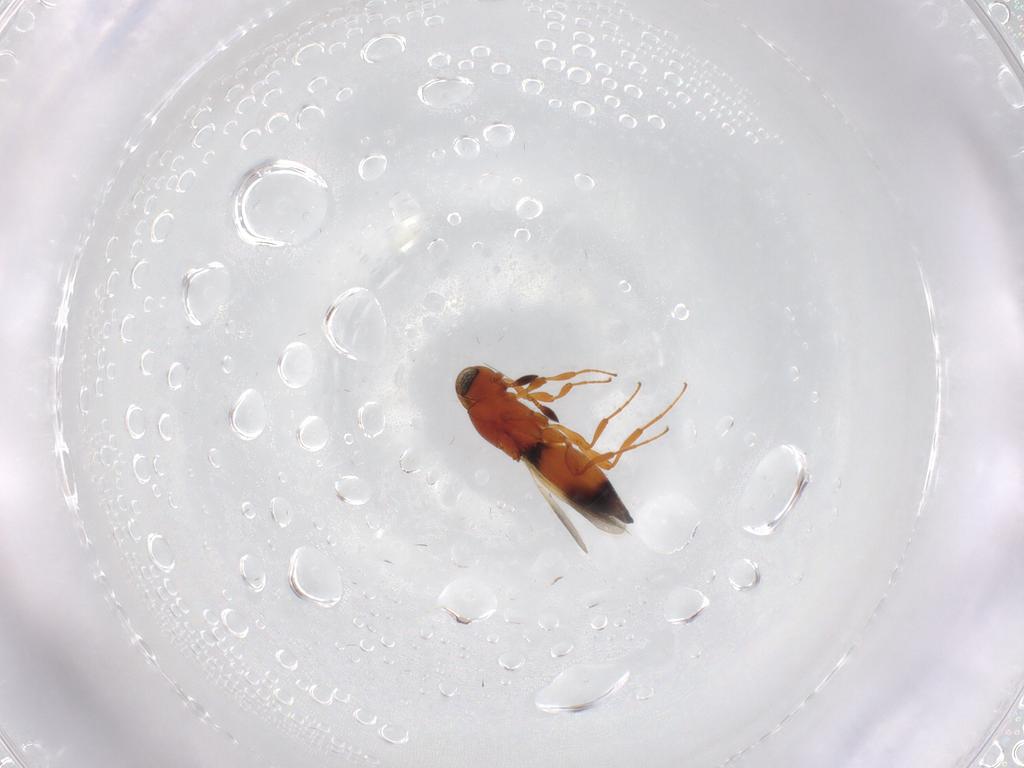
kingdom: Animalia
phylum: Arthropoda
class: Insecta
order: Hymenoptera
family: Platygastridae
